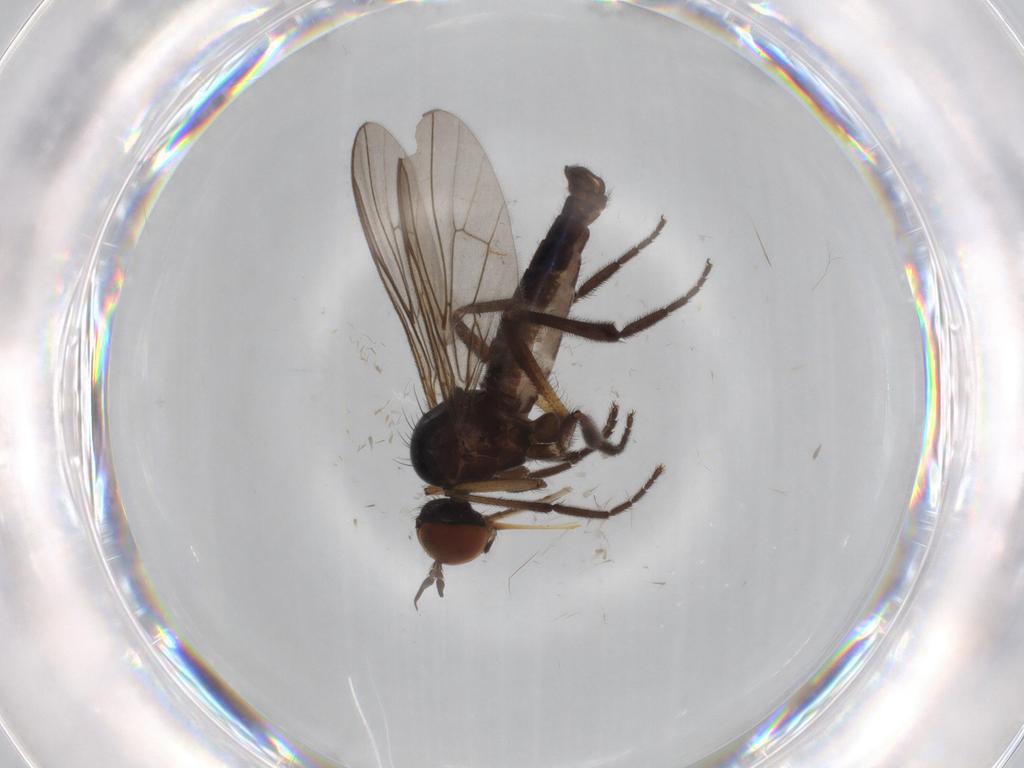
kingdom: Animalia
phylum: Arthropoda
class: Insecta
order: Diptera
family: Empididae
